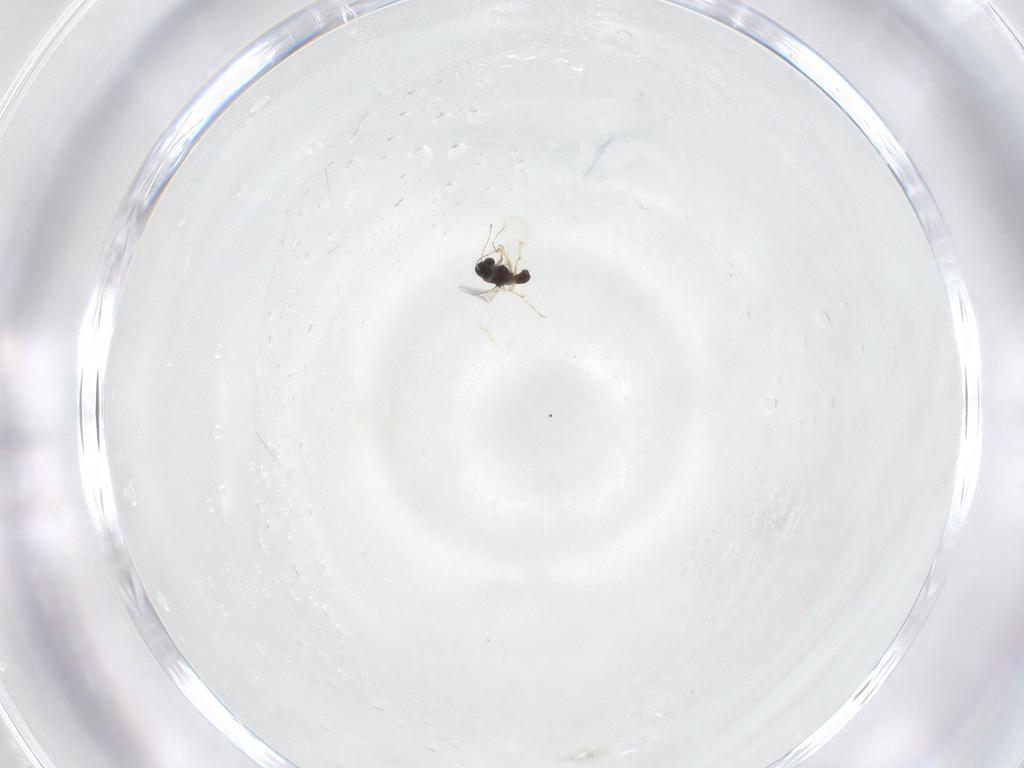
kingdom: Animalia
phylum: Arthropoda
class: Insecta
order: Diptera
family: Chironomidae
